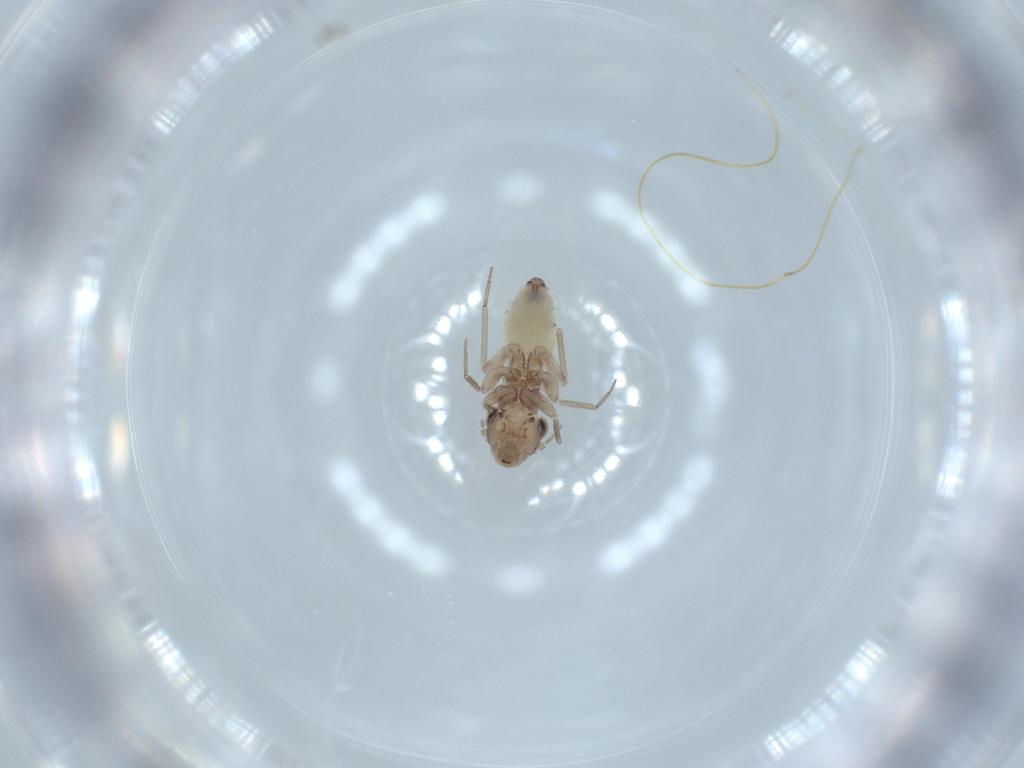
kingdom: Animalia
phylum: Arthropoda
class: Insecta
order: Psocodea
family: Lepidopsocidae
